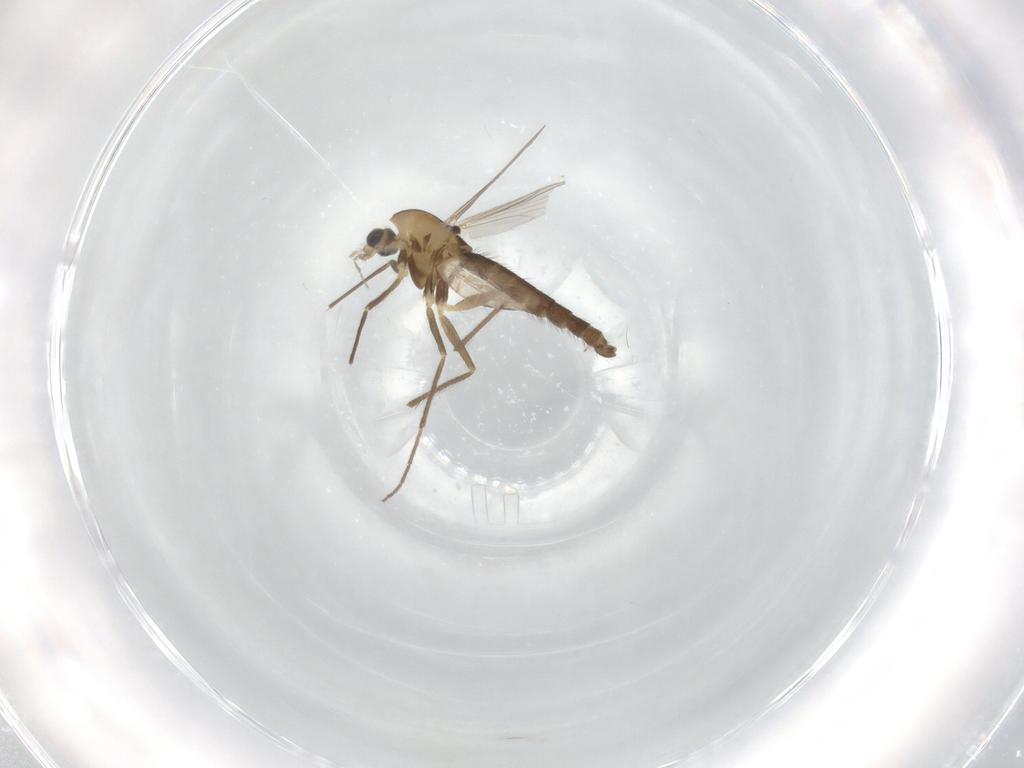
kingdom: Animalia
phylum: Arthropoda
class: Insecta
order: Diptera
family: Chironomidae
